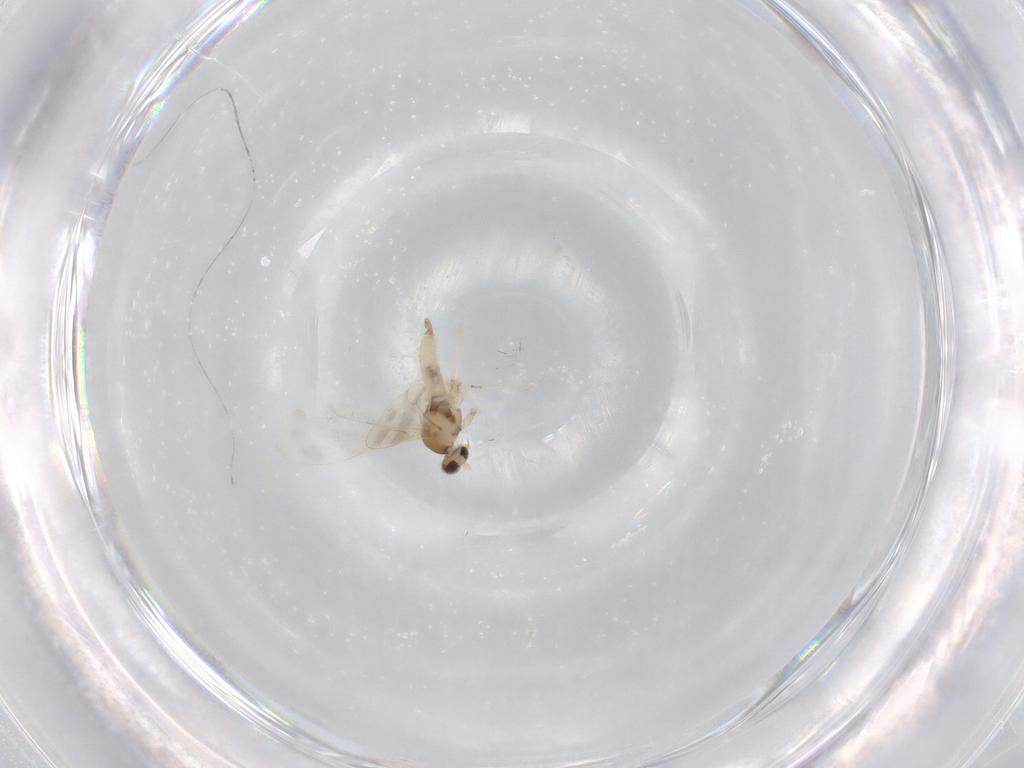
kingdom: Animalia
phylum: Arthropoda
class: Insecta
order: Diptera
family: Cecidomyiidae
